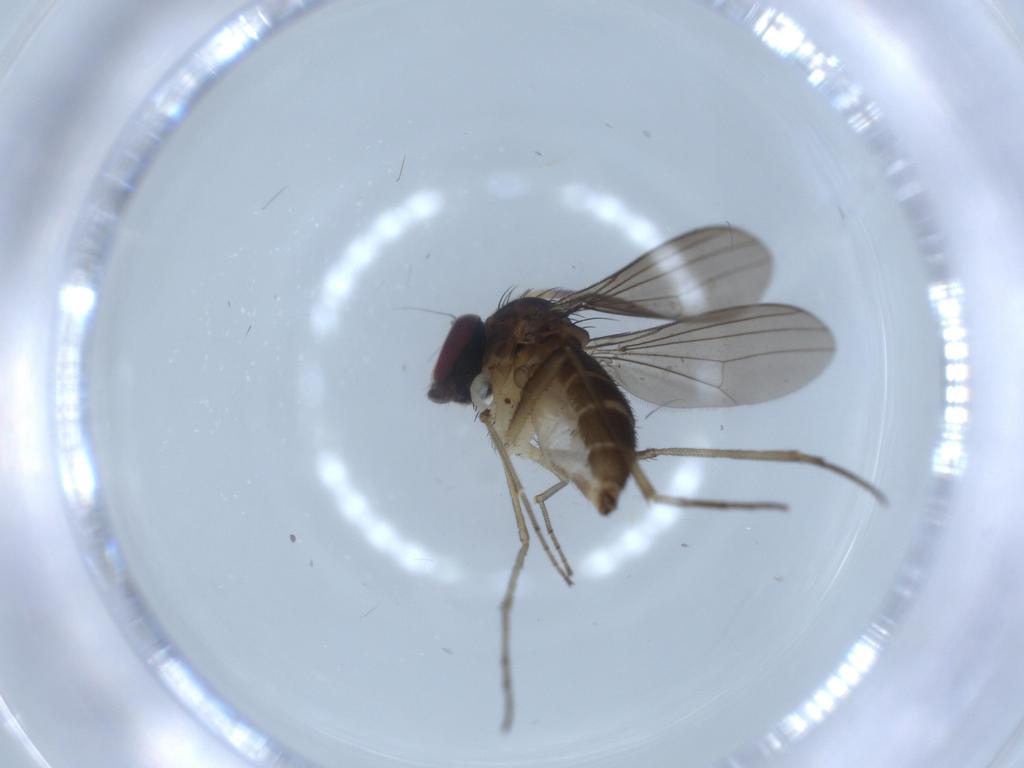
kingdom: Animalia
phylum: Arthropoda
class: Insecta
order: Diptera
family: Dolichopodidae
